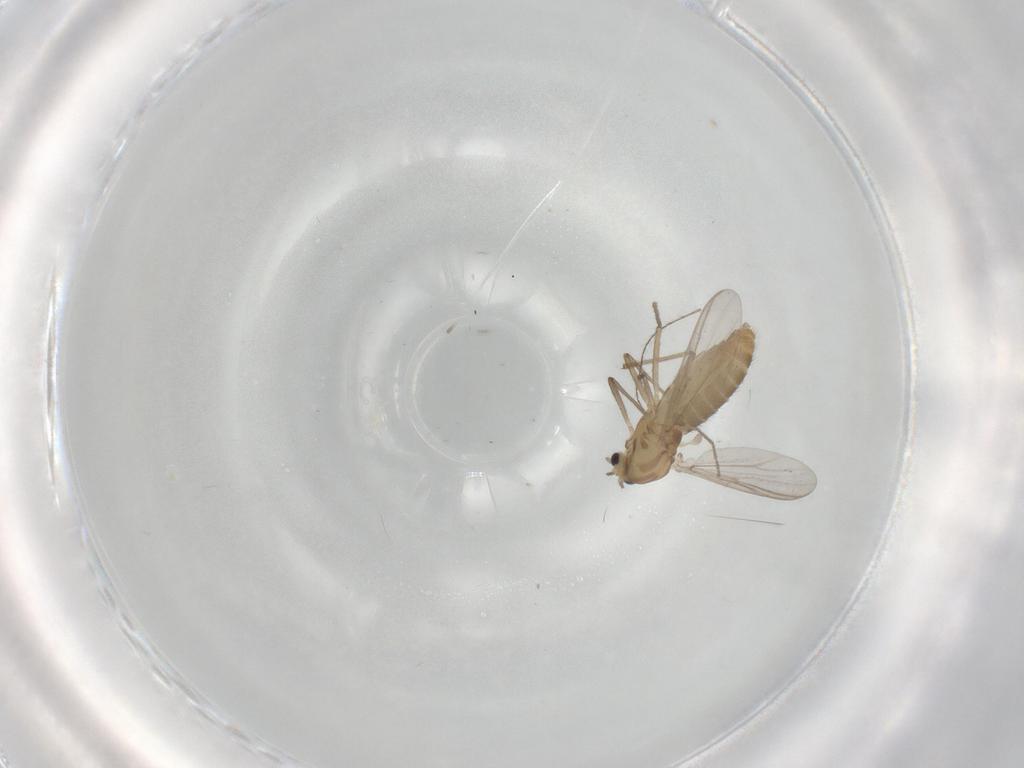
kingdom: Animalia
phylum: Arthropoda
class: Insecta
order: Diptera
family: Chironomidae
